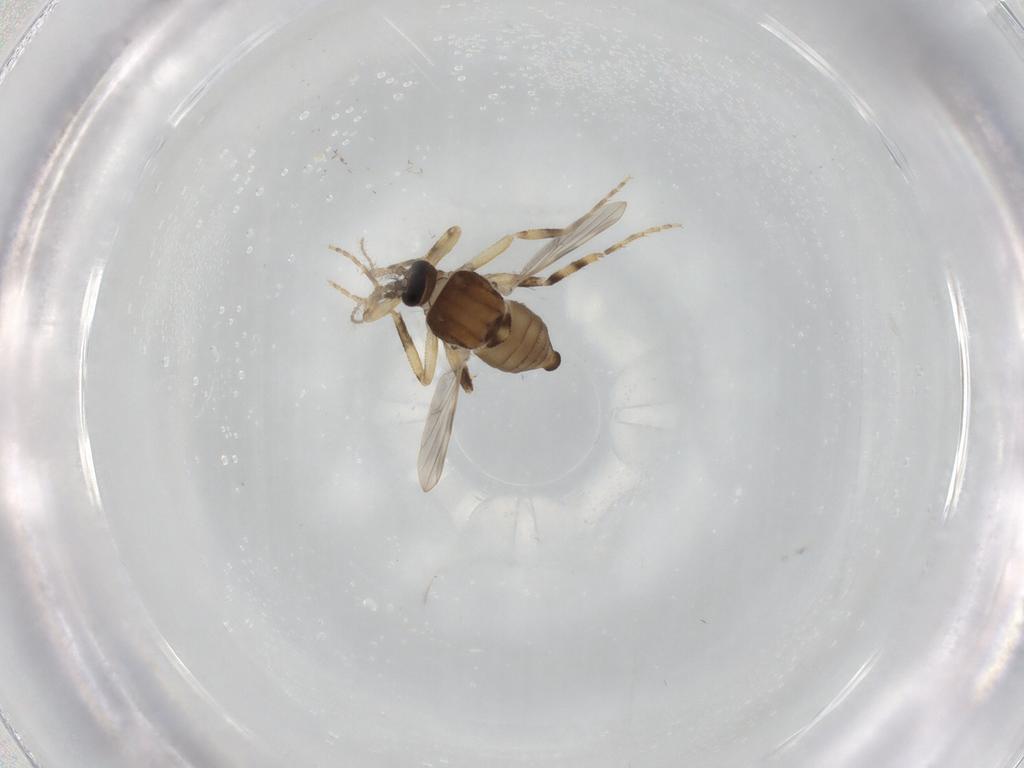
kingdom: Animalia
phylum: Arthropoda
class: Insecta
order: Diptera
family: Ceratopogonidae
